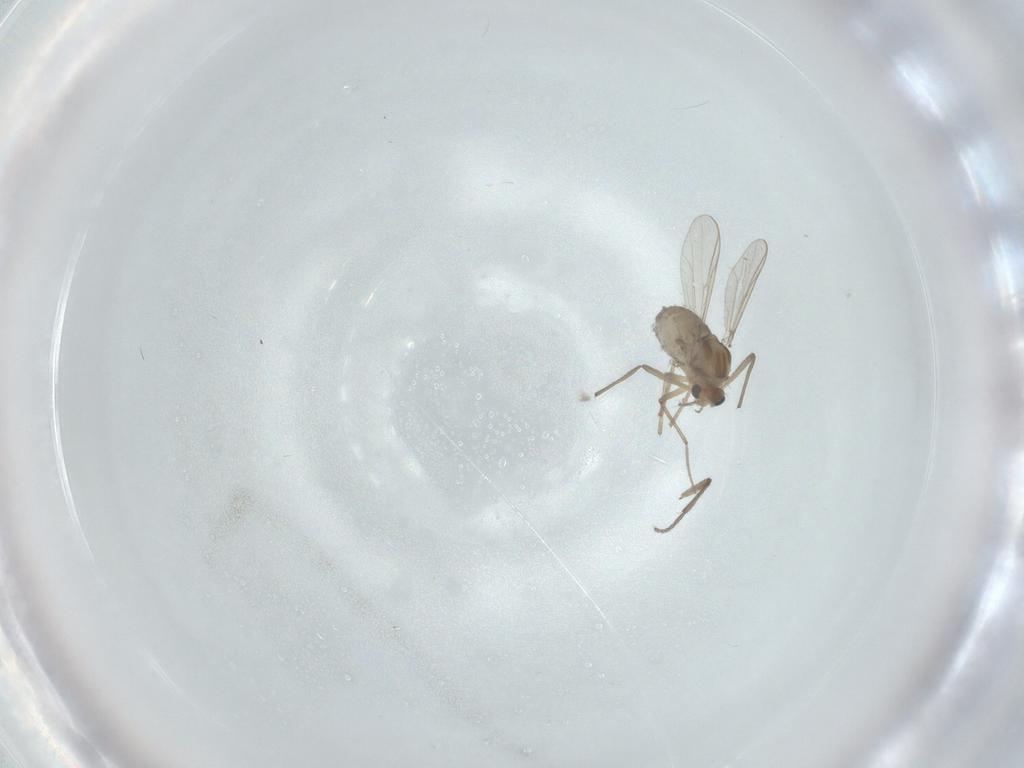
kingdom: Animalia
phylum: Arthropoda
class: Insecta
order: Diptera
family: Chironomidae
